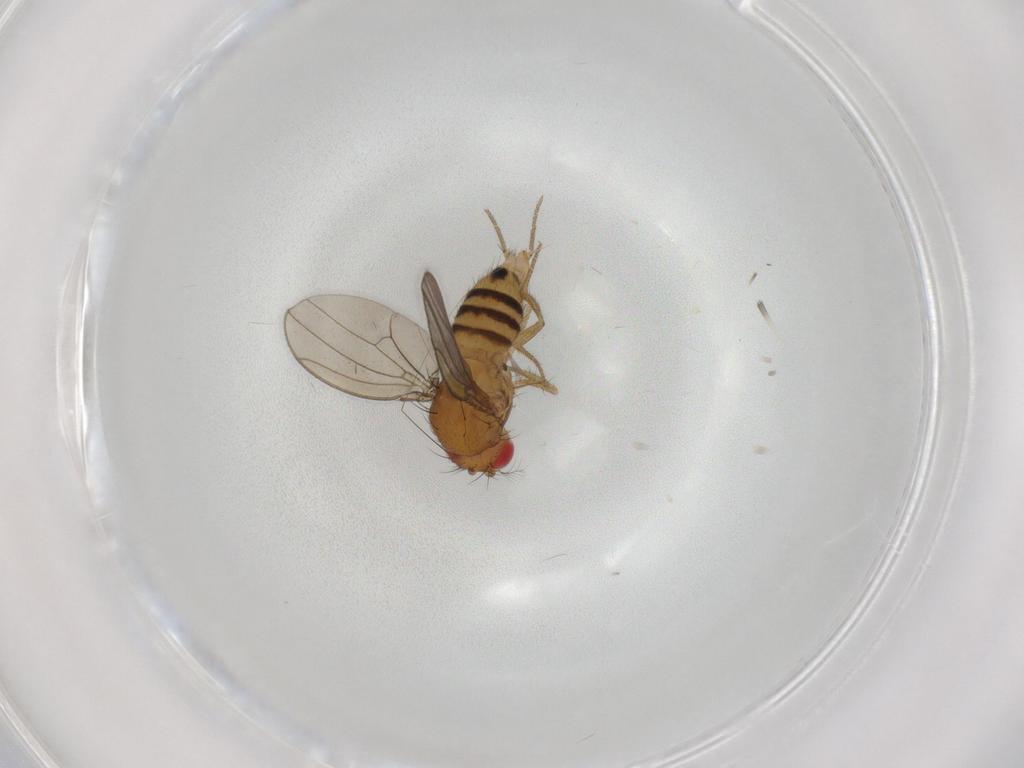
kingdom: Animalia
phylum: Arthropoda
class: Insecta
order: Diptera
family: Drosophilidae
